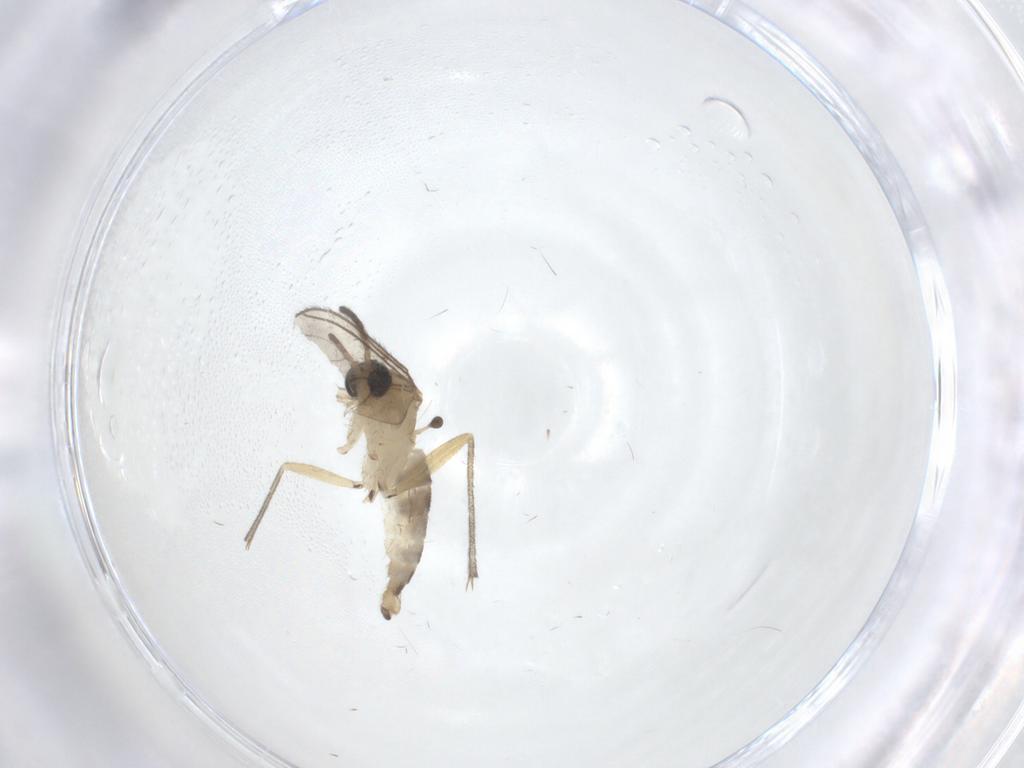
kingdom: Animalia
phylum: Arthropoda
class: Insecta
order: Diptera
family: Sciaridae
